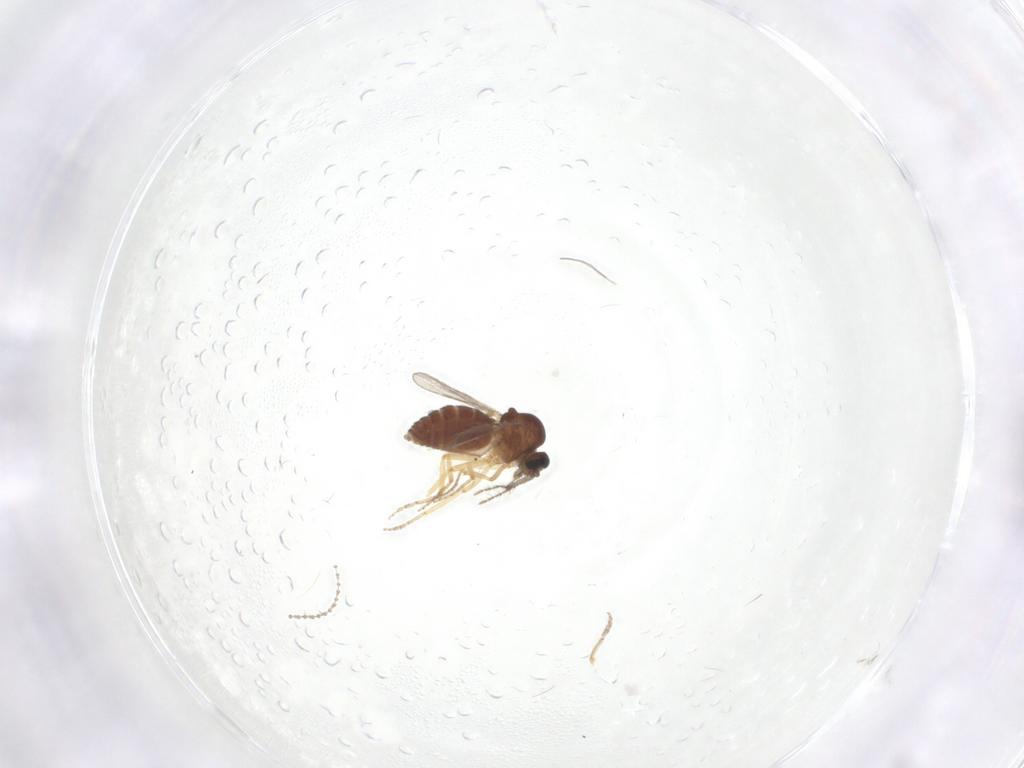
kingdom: Animalia
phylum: Arthropoda
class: Insecta
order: Diptera
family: Ceratopogonidae
